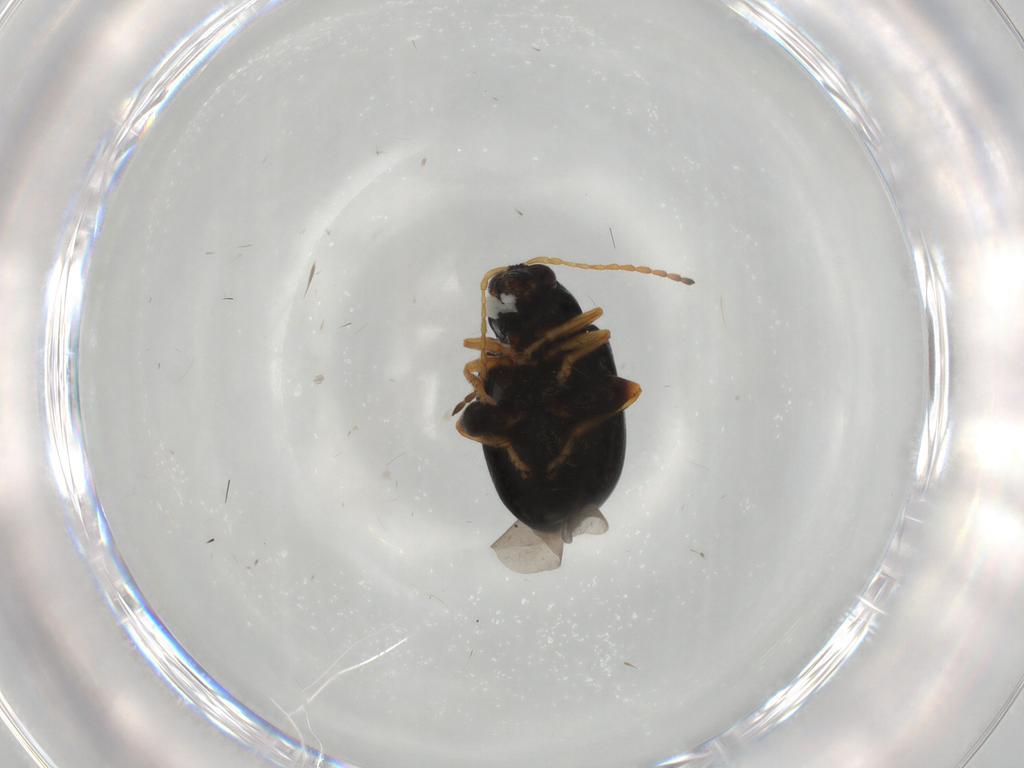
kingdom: Animalia
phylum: Arthropoda
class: Insecta
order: Coleoptera
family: Chrysomelidae
